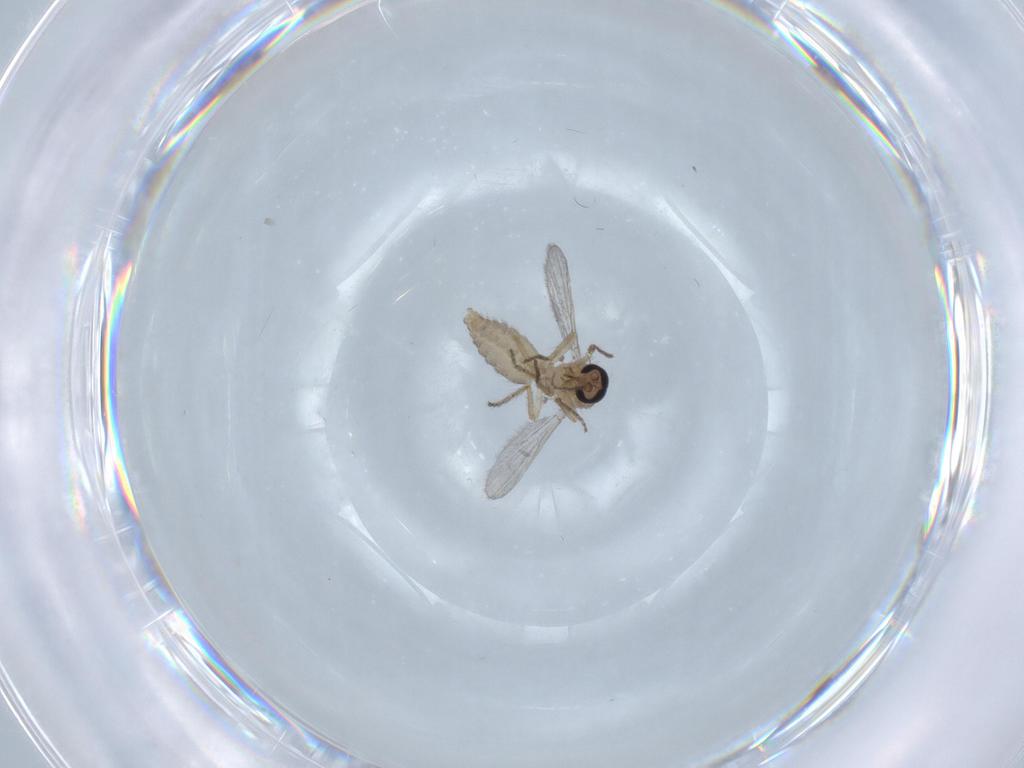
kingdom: Animalia
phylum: Arthropoda
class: Insecta
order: Diptera
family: Ceratopogonidae
